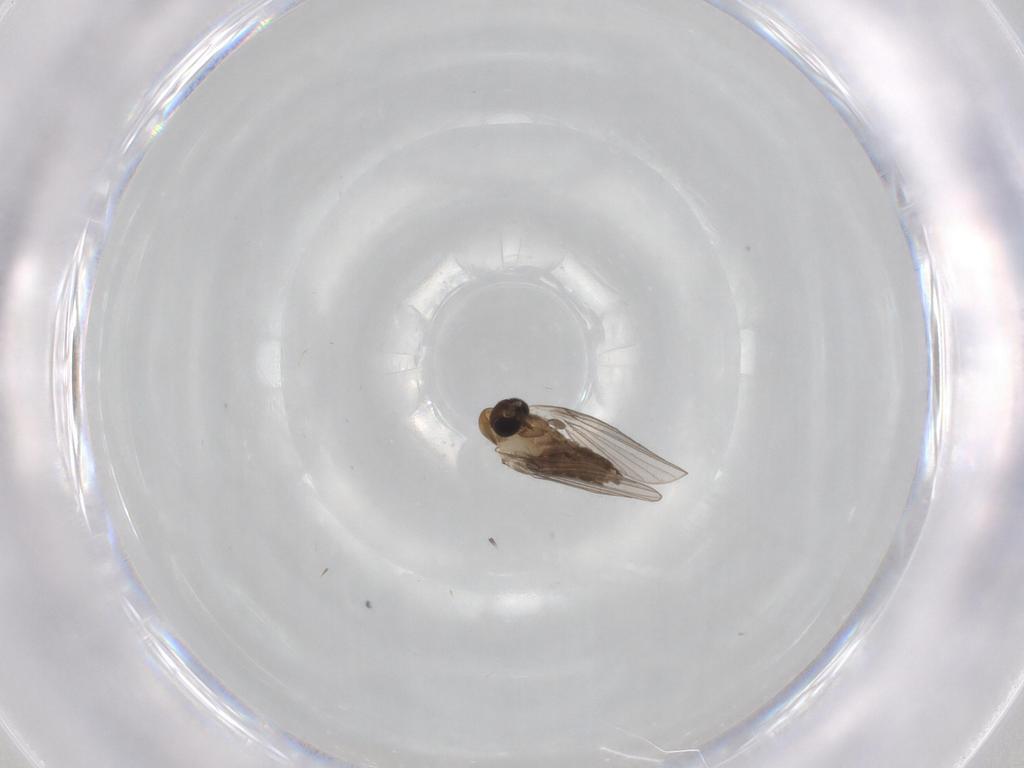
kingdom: Animalia
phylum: Arthropoda
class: Insecta
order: Diptera
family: Psychodidae
